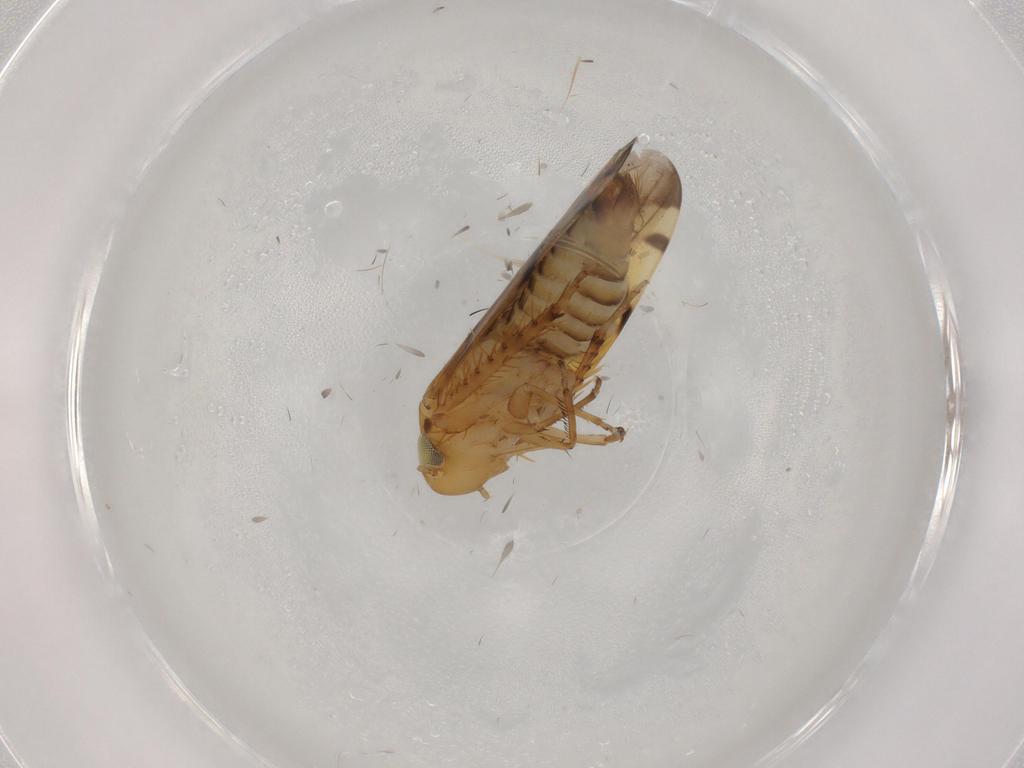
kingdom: Animalia
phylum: Arthropoda
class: Insecta
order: Hemiptera
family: Cicadellidae
